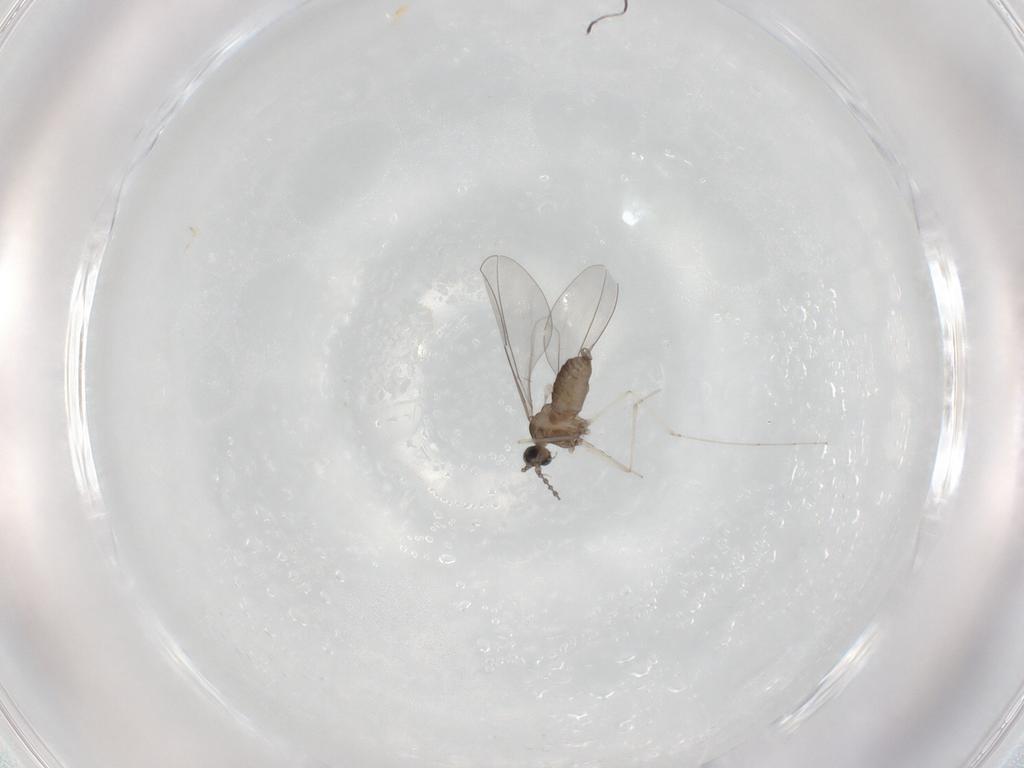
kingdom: Animalia
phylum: Arthropoda
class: Insecta
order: Diptera
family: Cecidomyiidae
